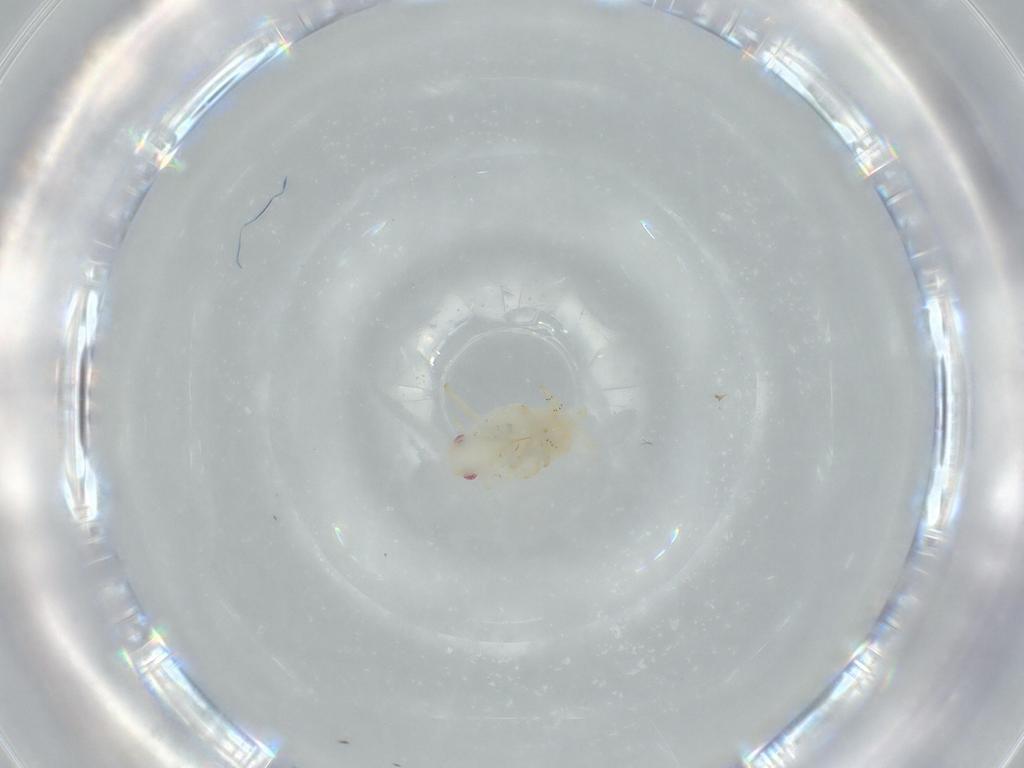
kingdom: Animalia
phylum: Arthropoda
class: Insecta
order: Hemiptera
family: Flatidae
